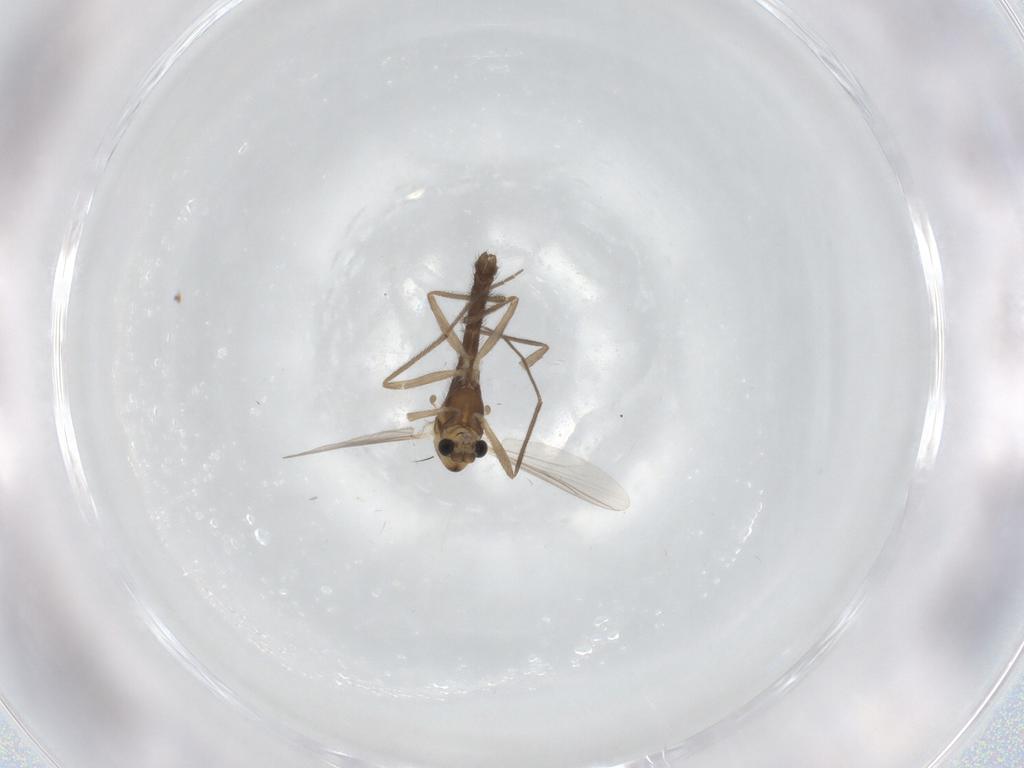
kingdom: Animalia
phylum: Arthropoda
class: Insecta
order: Diptera
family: Chironomidae
